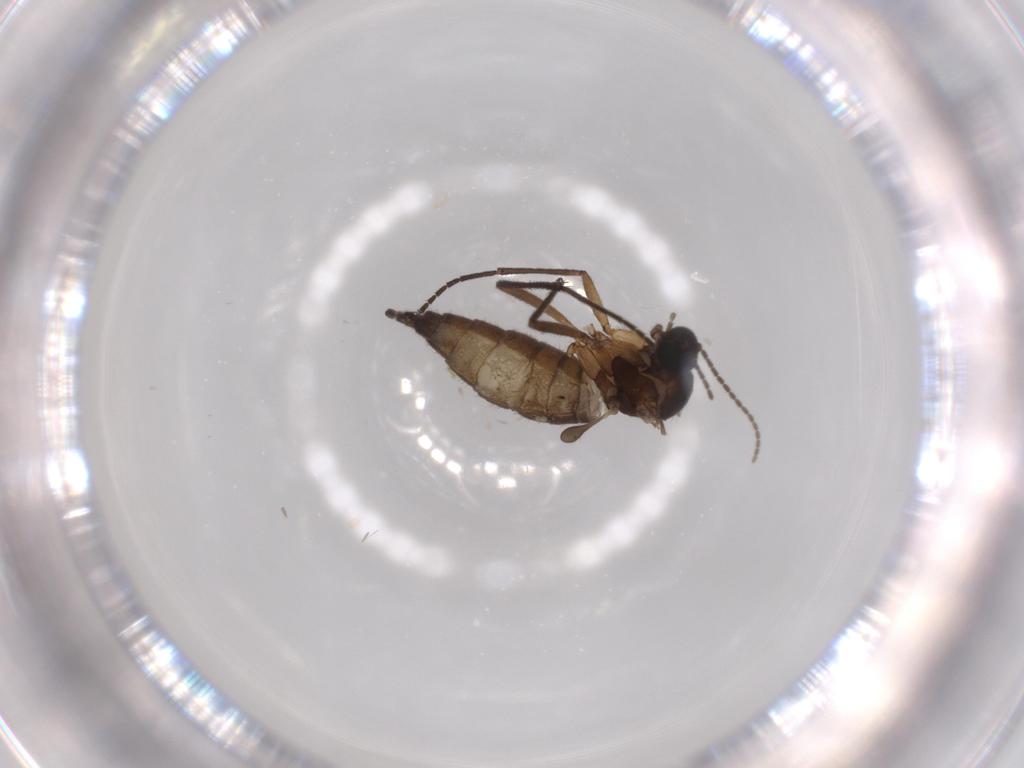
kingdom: Animalia
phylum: Arthropoda
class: Insecta
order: Diptera
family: Sciaridae
